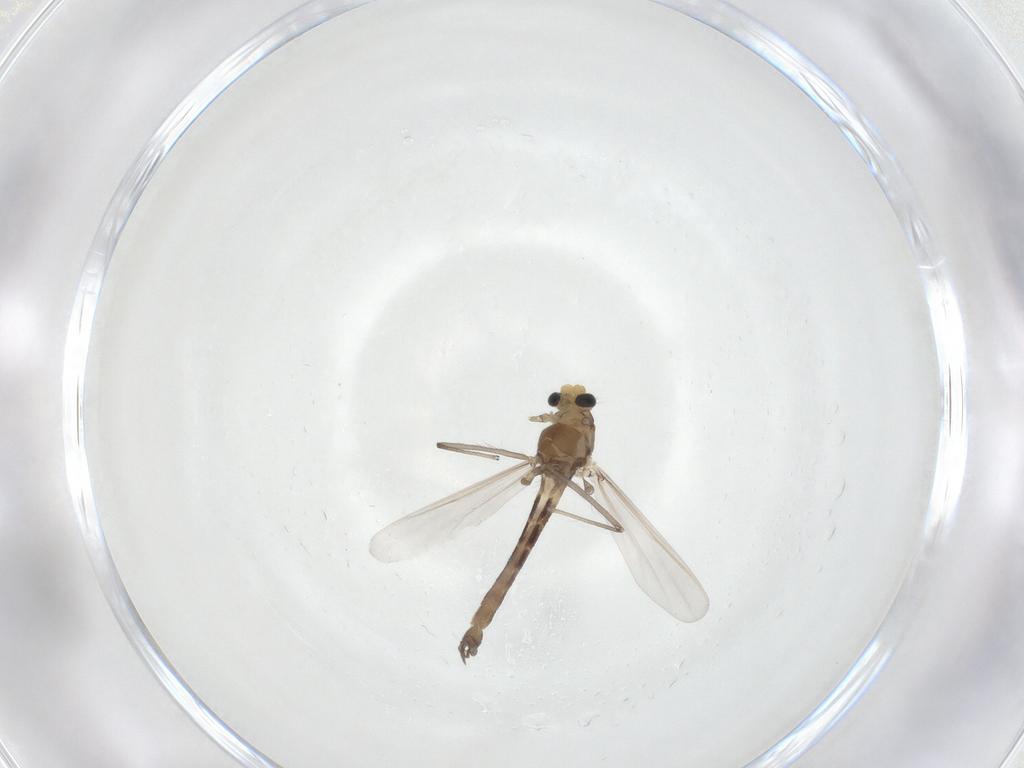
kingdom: Animalia
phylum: Arthropoda
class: Insecta
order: Diptera
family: Chironomidae
